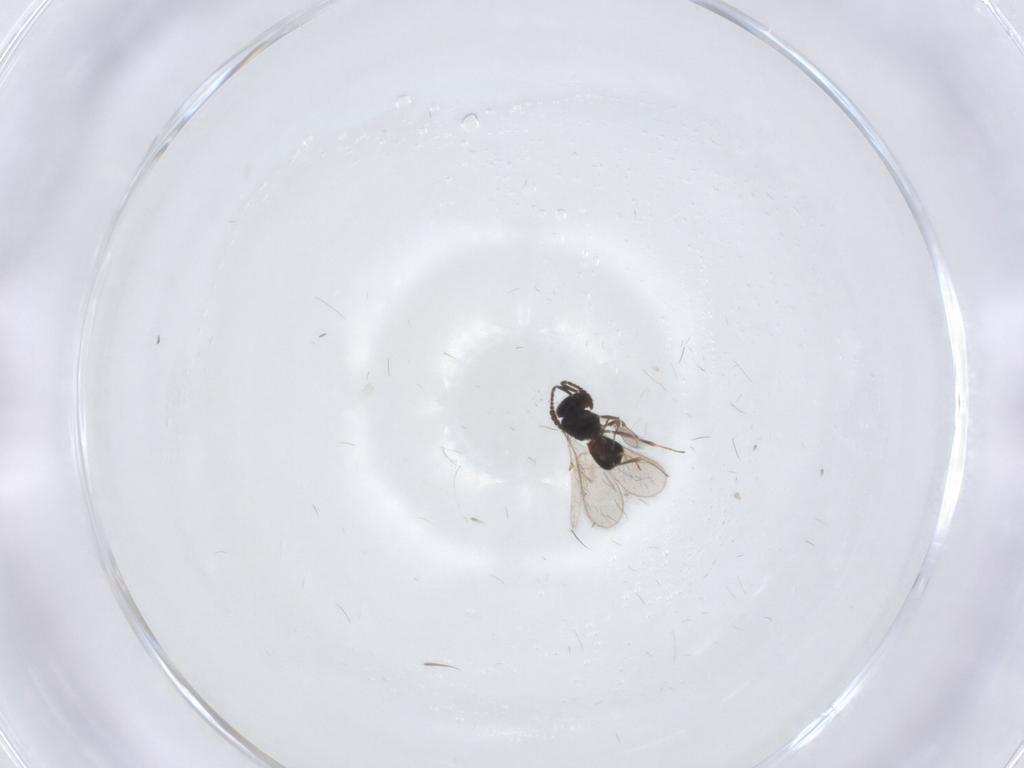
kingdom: Animalia
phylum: Arthropoda
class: Insecta
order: Hymenoptera
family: Scelionidae
